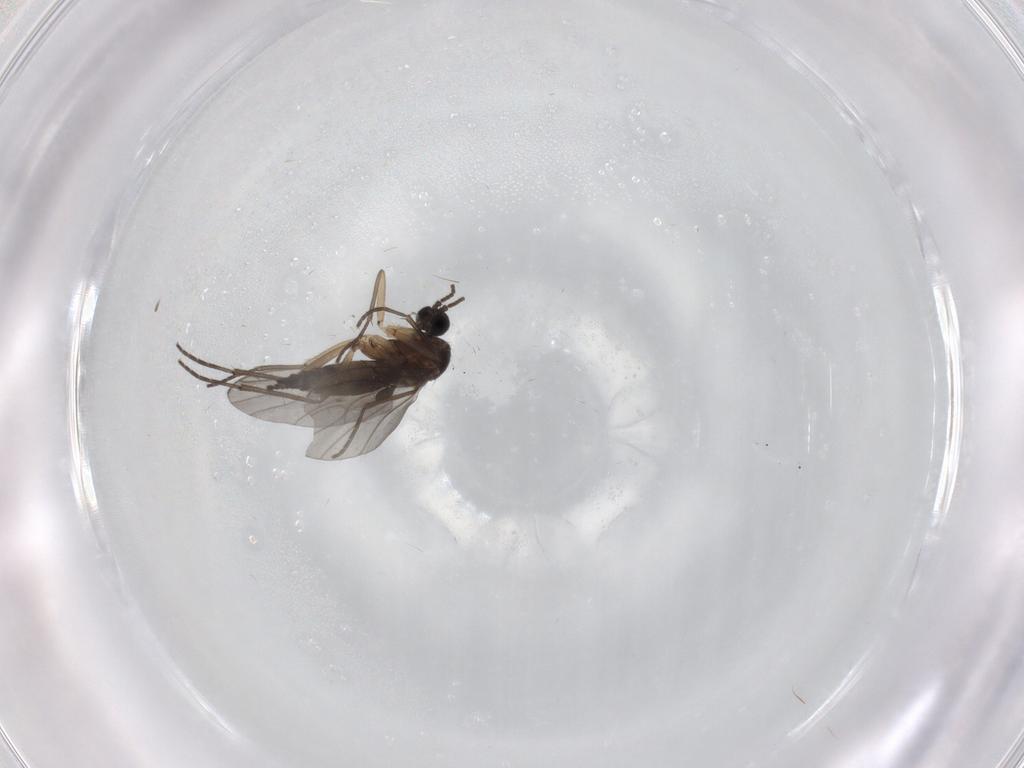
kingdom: Animalia
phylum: Arthropoda
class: Insecta
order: Diptera
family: Sciaridae
